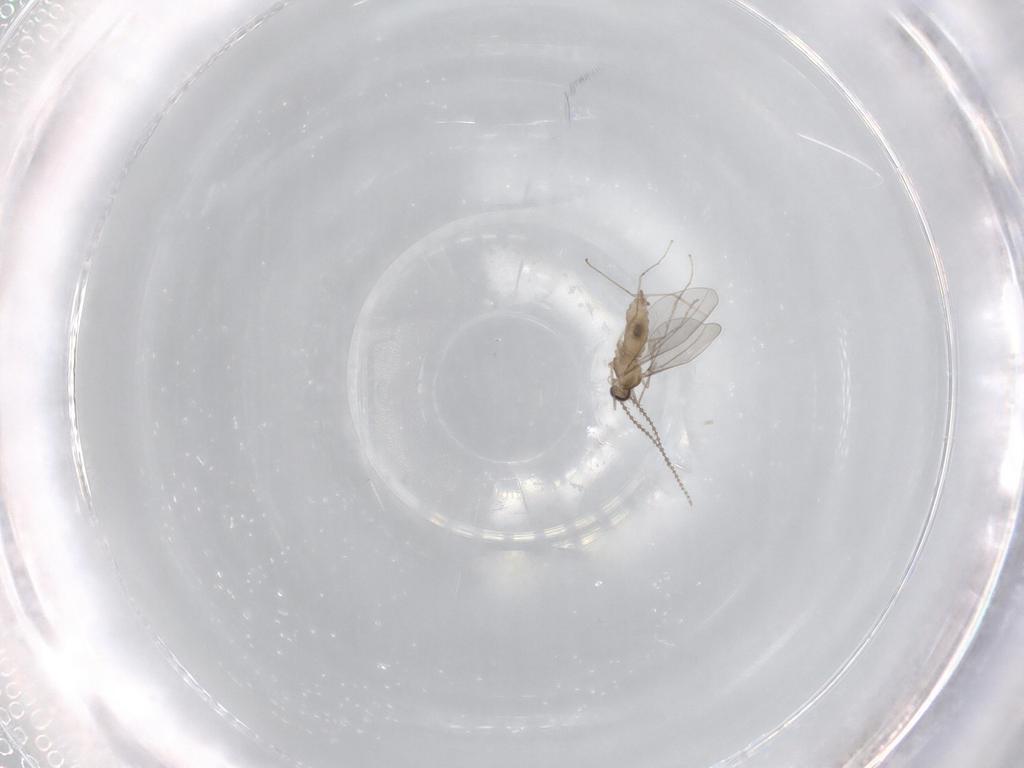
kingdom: Animalia
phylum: Arthropoda
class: Insecta
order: Diptera
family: Cecidomyiidae
